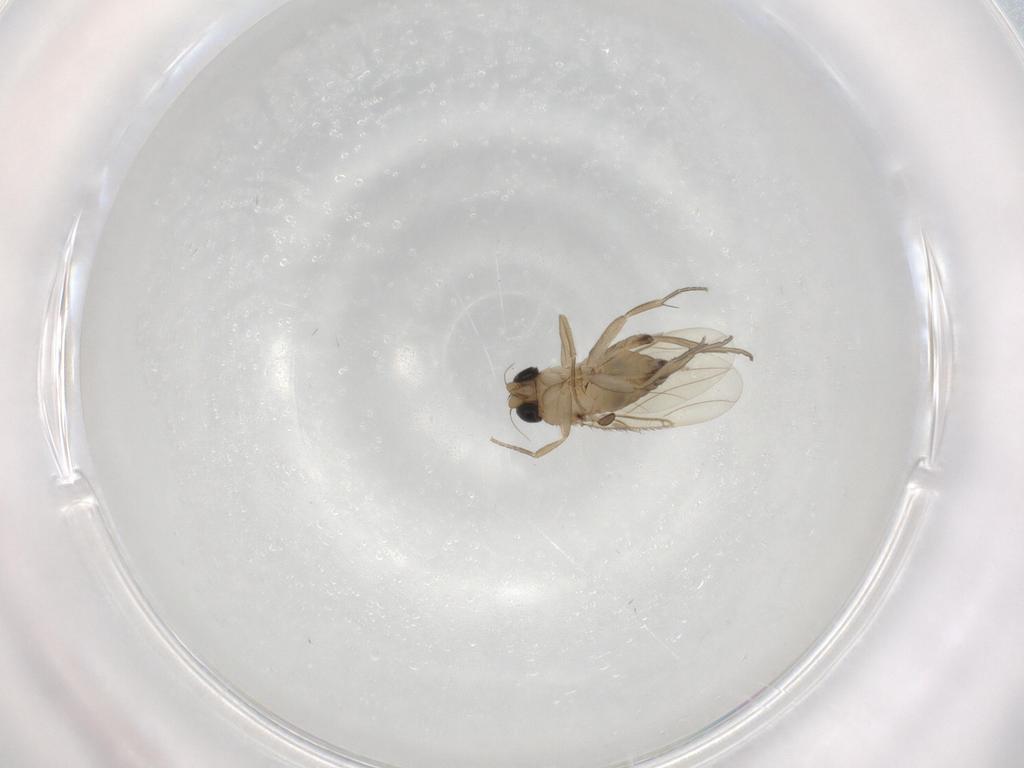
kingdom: Animalia
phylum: Arthropoda
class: Insecta
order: Diptera
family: Phoridae
